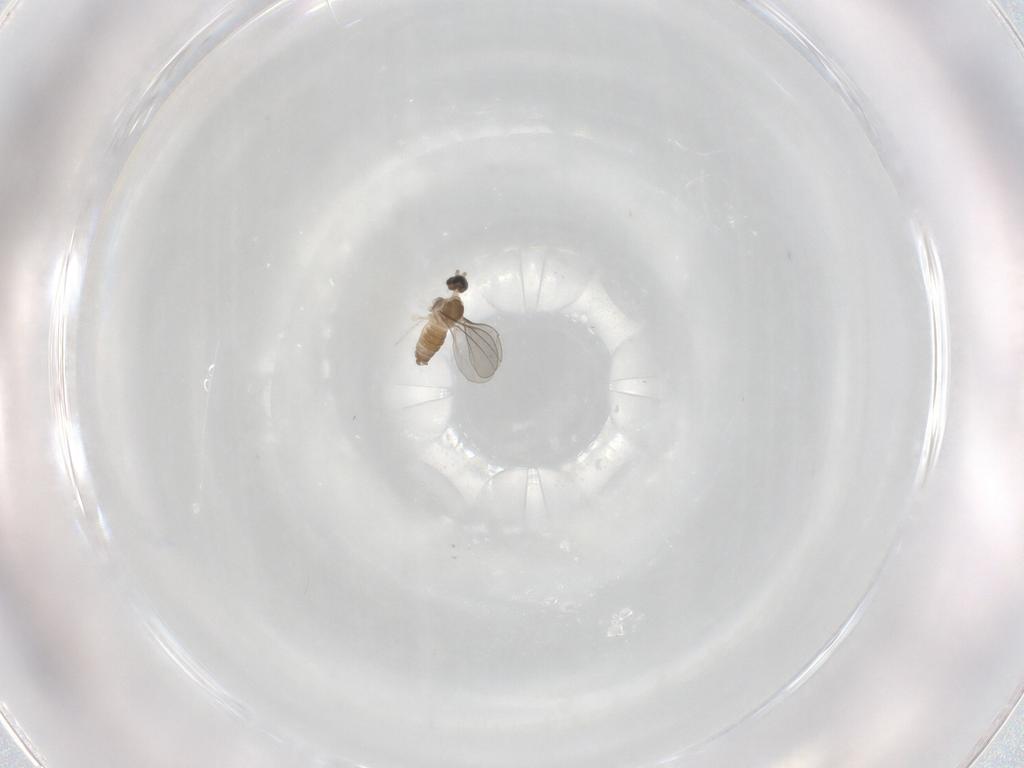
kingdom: Animalia
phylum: Arthropoda
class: Insecta
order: Diptera
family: Cecidomyiidae
